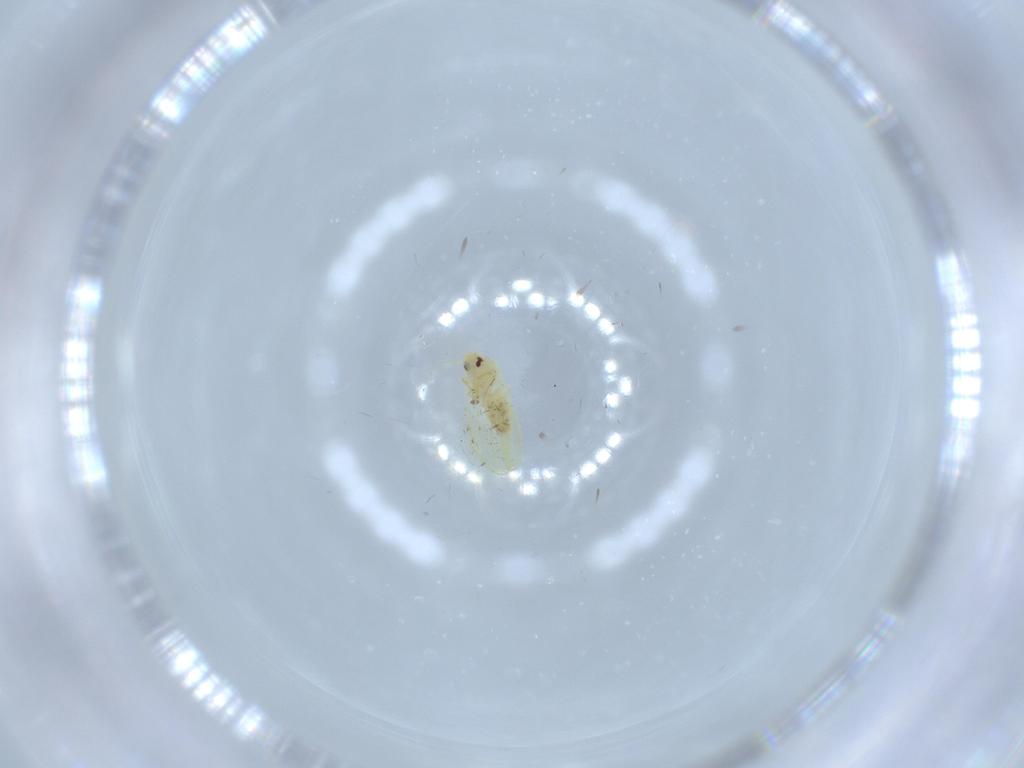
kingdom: Animalia
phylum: Arthropoda
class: Insecta
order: Hemiptera
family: Aleyrodidae
